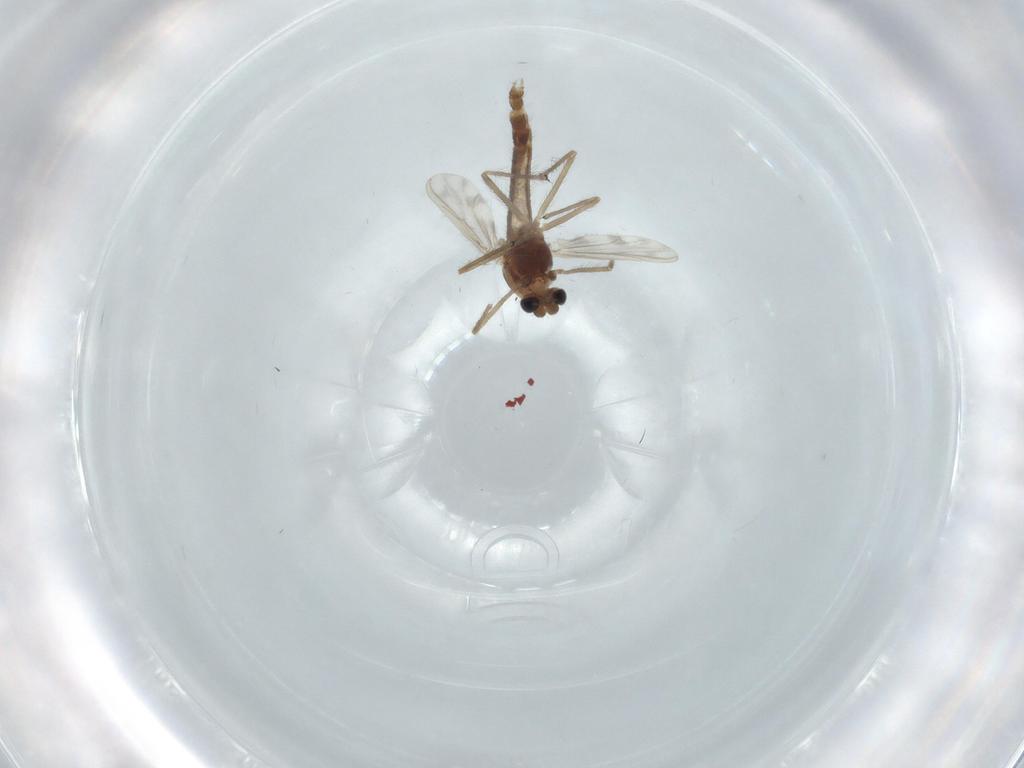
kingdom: Animalia
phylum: Arthropoda
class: Insecta
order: Diptera
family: Chironomidae
